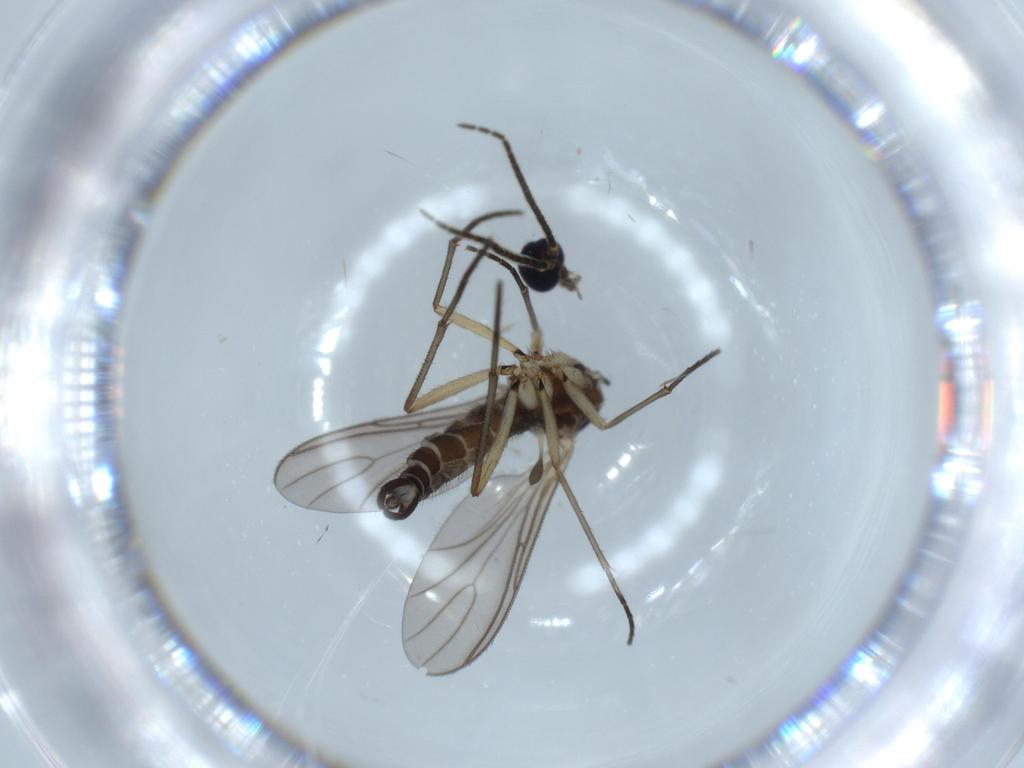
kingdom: Animalia
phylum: Arthropoda
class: Insecta
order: Diptera
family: Sciaridae
